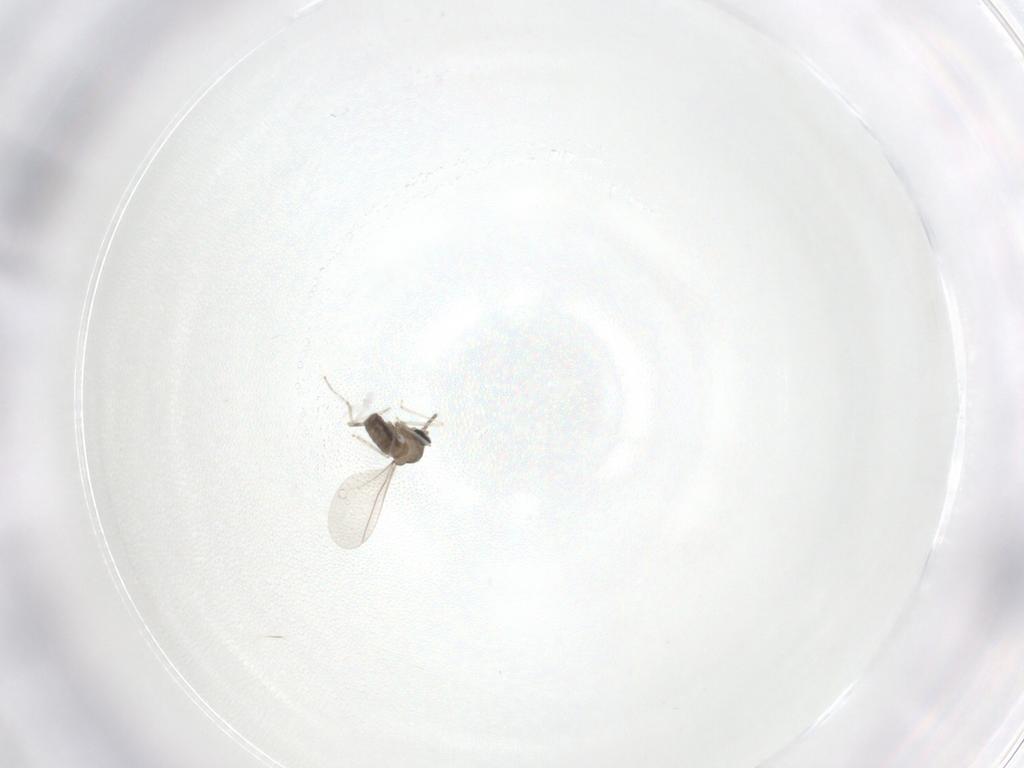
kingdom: Animalia
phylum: Arthropoda
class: Insecta
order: Diptera
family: Cecidomyiidae
